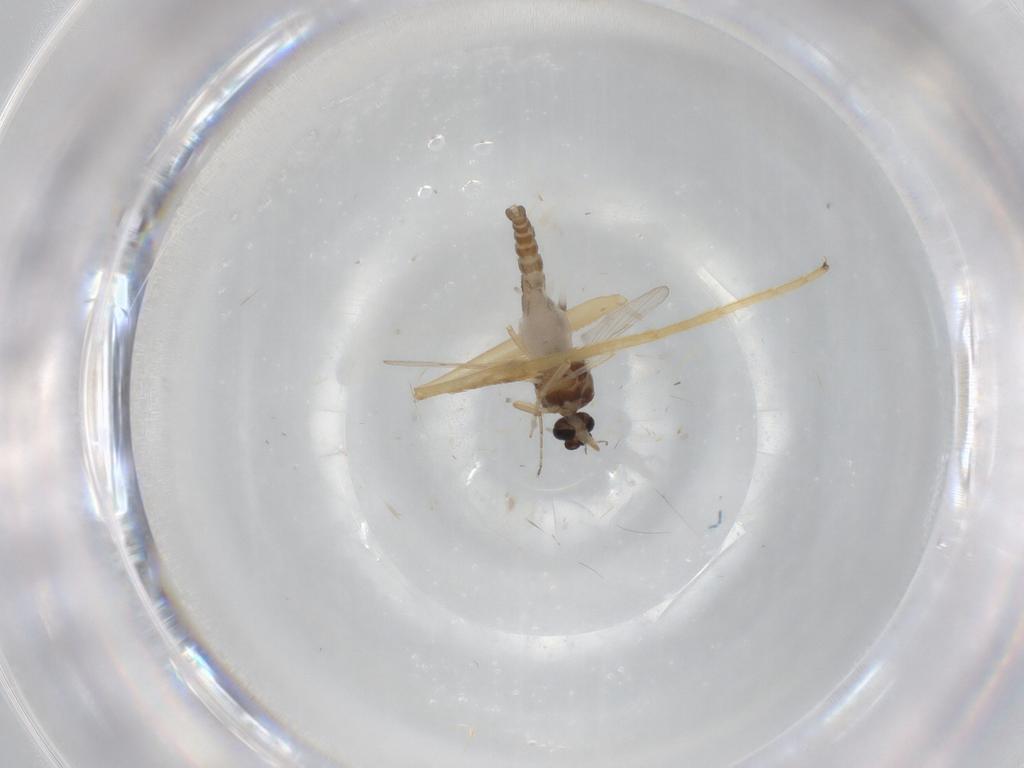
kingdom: Animalia
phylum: Arthropoda
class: Insecta
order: Diptera
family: Ceratopogonidae
